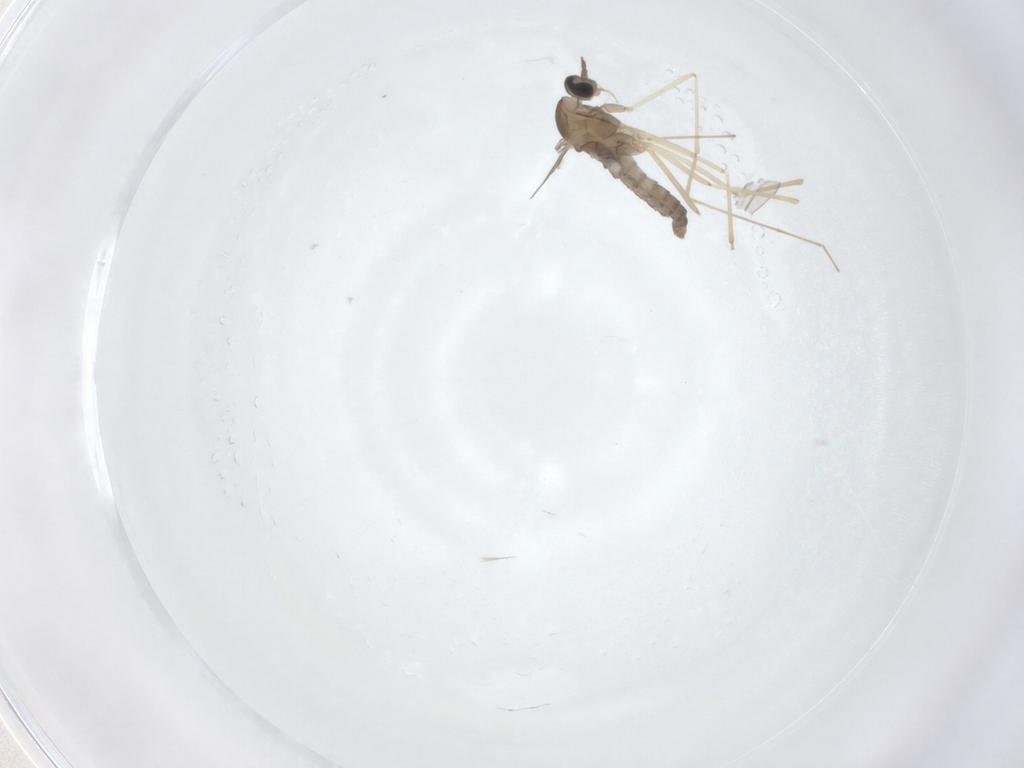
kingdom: Animalia
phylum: Arthropoda
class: Insecta
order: Diptera
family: Cecidomyiidae
